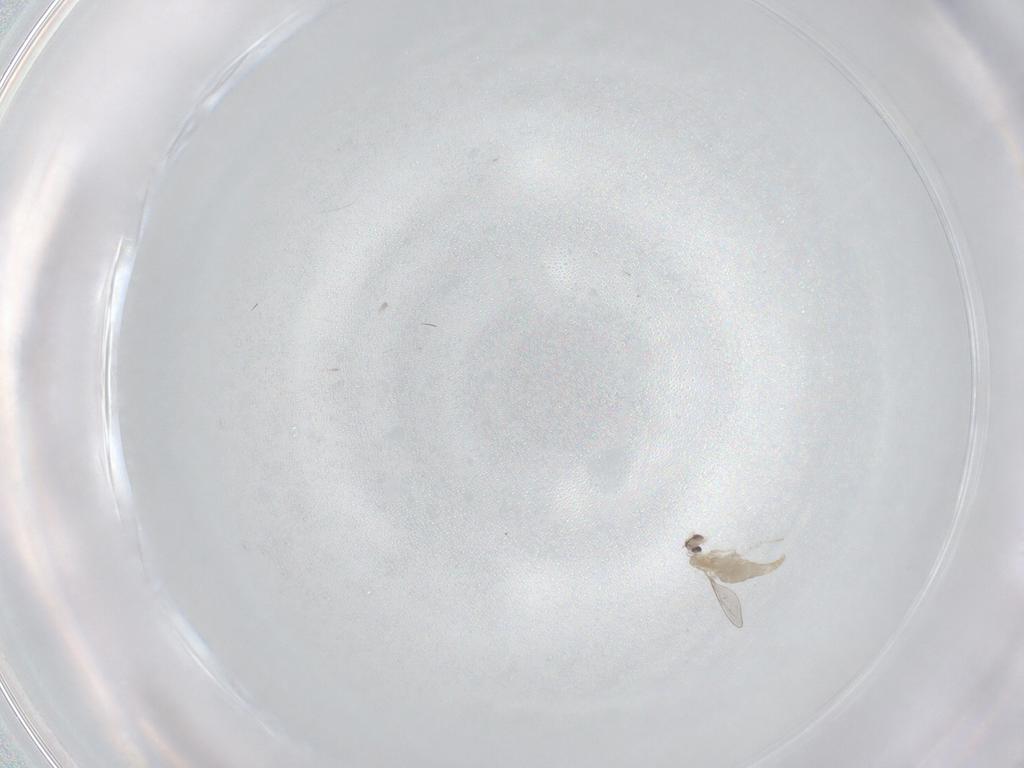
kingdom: Animalia
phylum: Arthropoda
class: Insecta
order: Diptera
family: Cecidomyiidae
